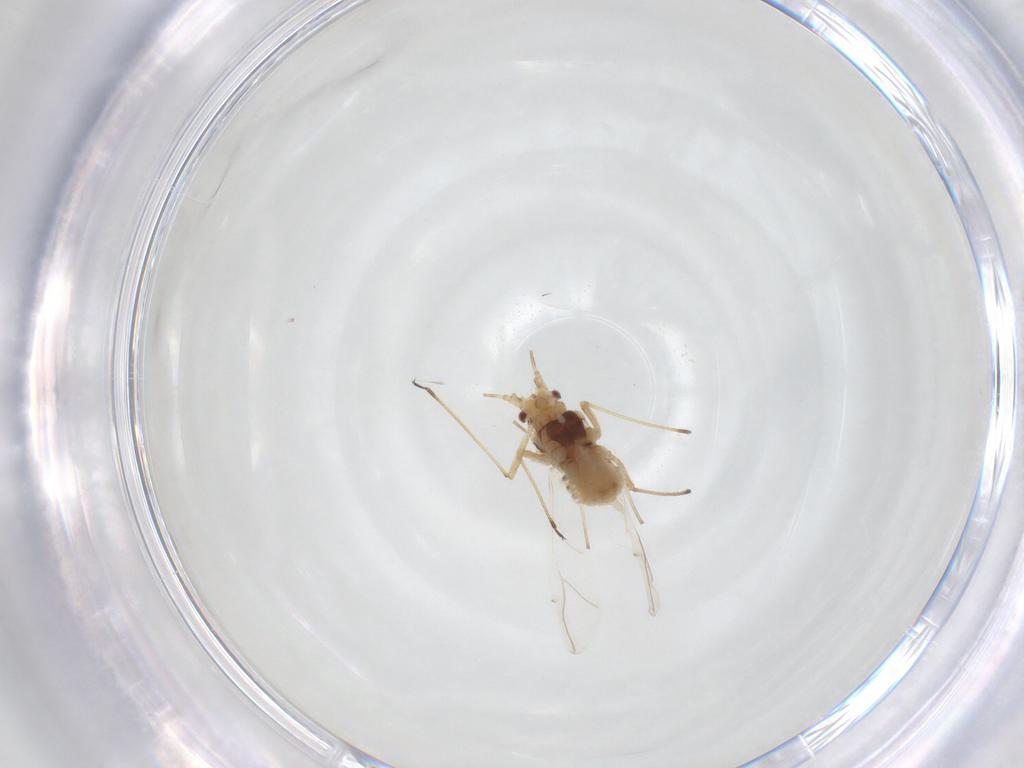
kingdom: Animalia
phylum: Arthropoda
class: Insecta
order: Hemiptera
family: Aphididae
